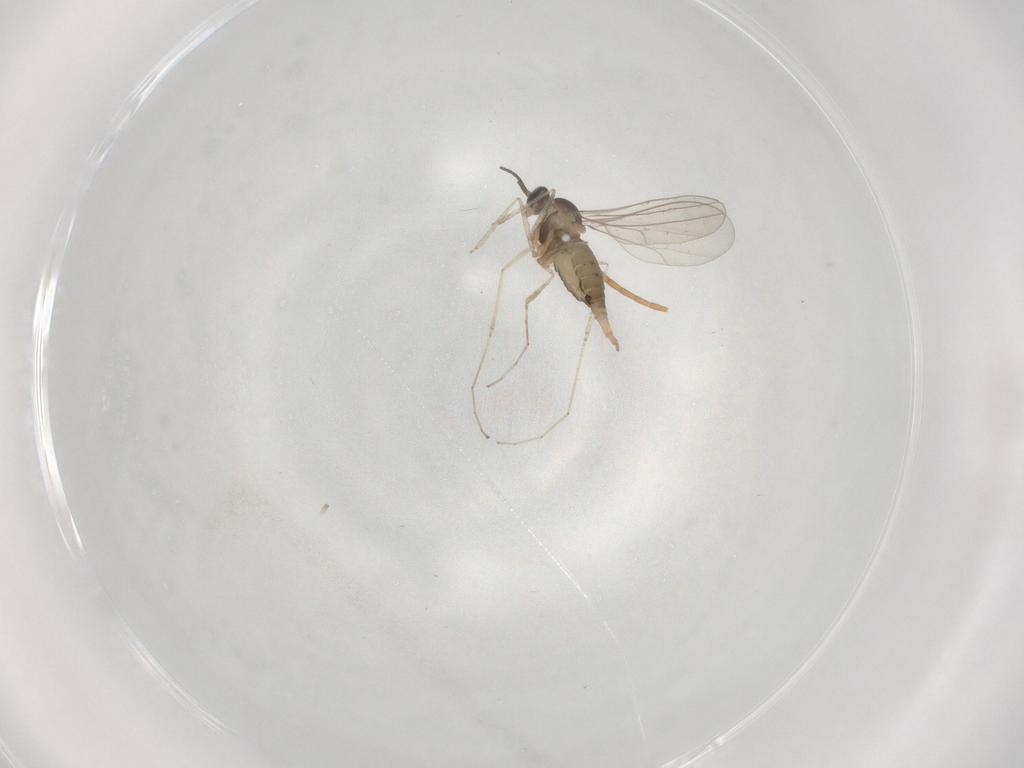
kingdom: Animalia
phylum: Arthropoda
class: Insecta
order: Diptera
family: Cecidomyiidae
